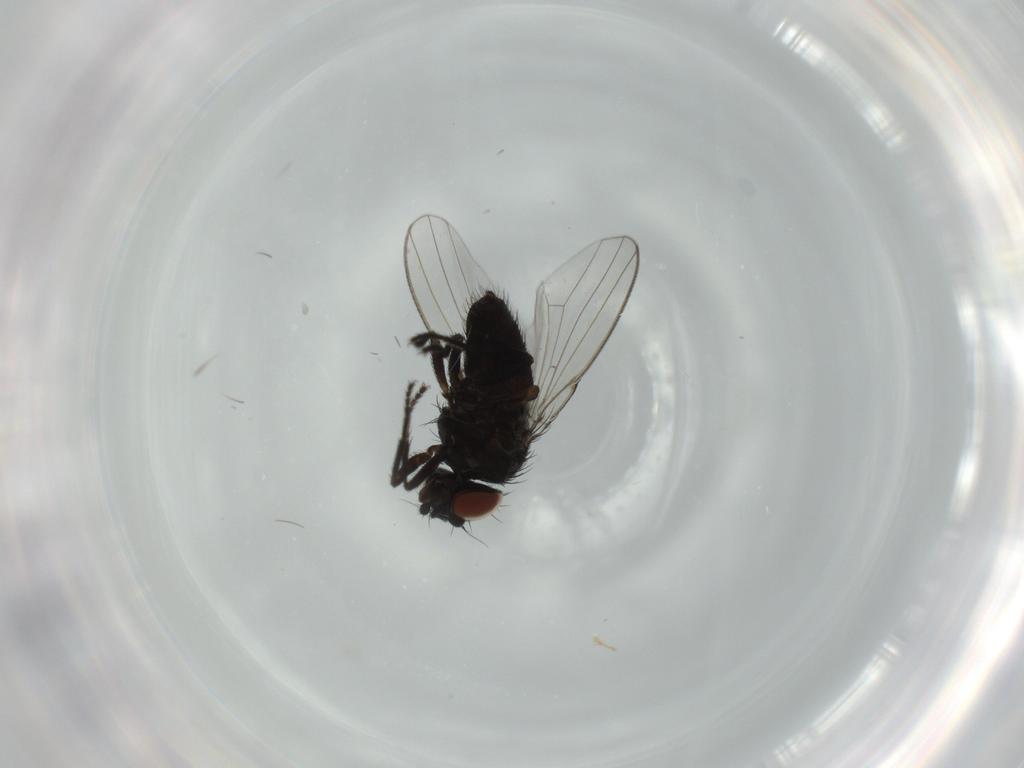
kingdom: Animalia
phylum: Arthropoda
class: Insecta
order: Diptera
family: Milichiidae
